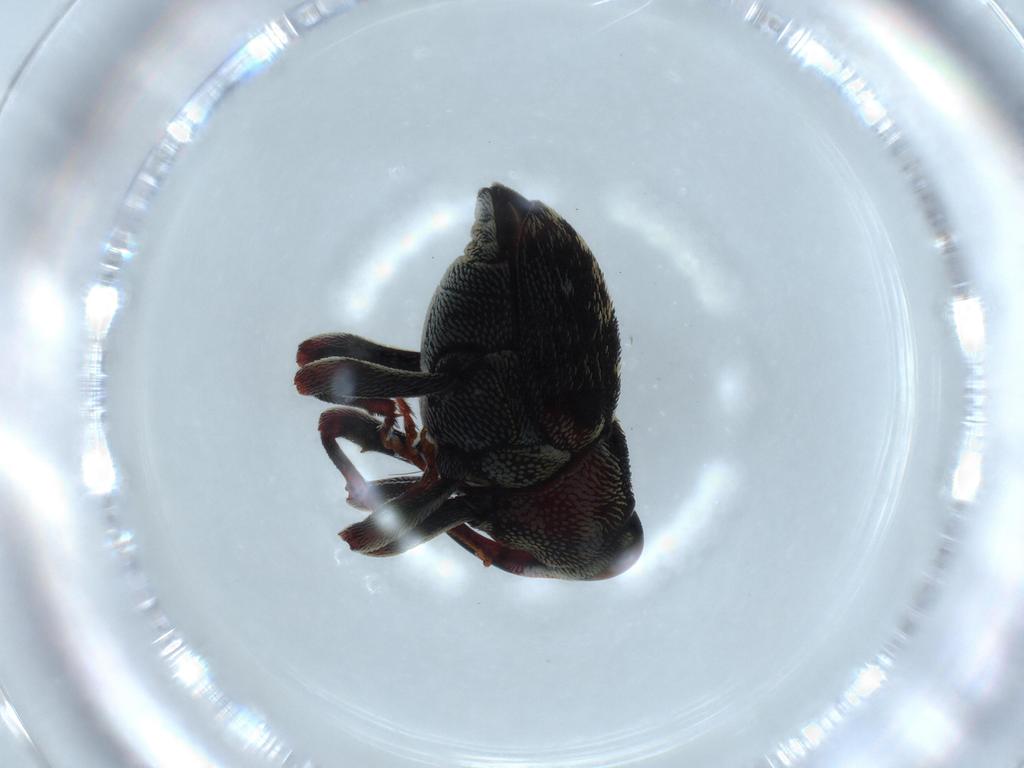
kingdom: Animalia
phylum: Arthropoda
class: Insecta
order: Coleoptera
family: Curculionidae
